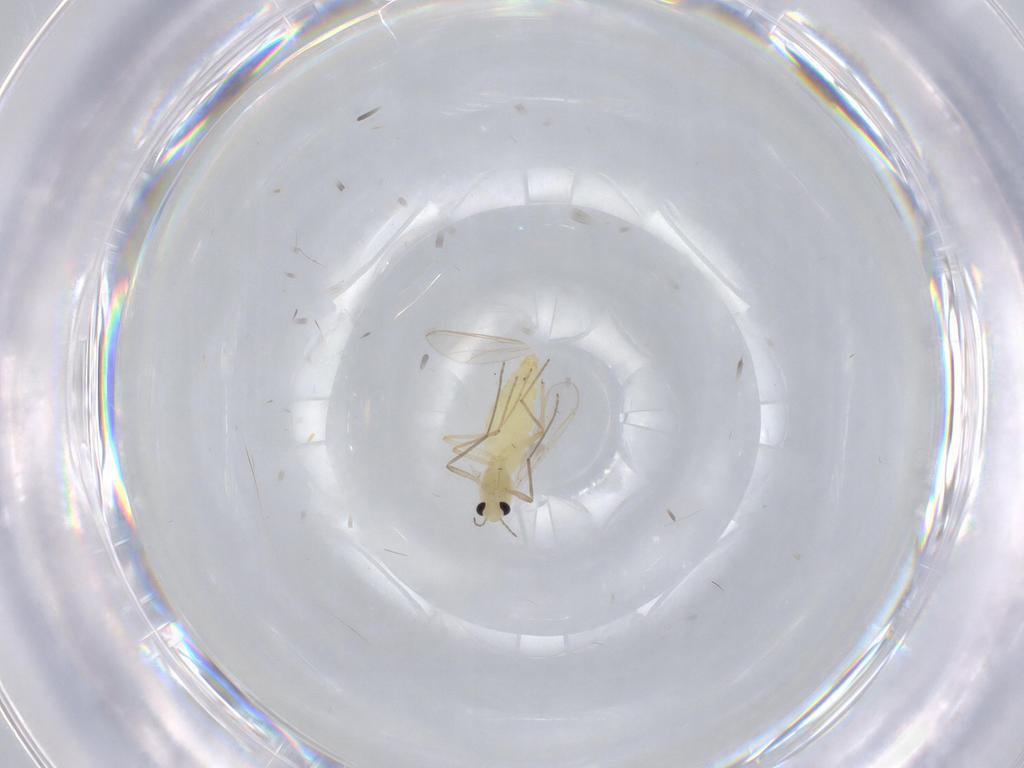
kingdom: Animalia
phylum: Arthropoda
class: Insecta
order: Diptera
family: Chironomidae
